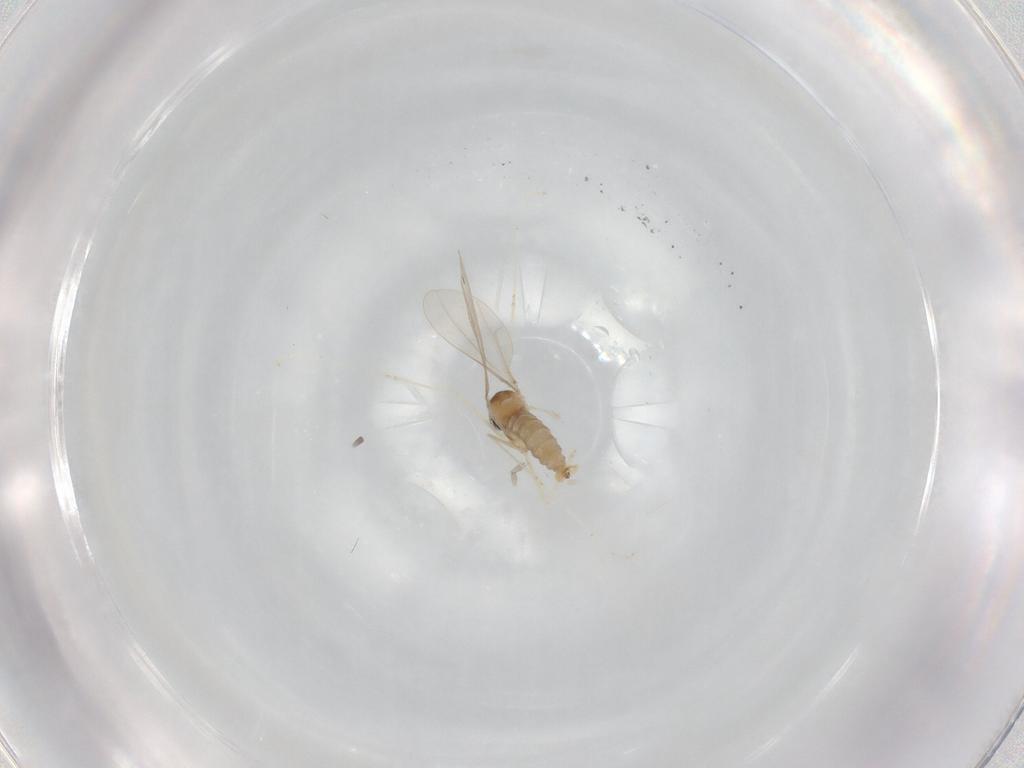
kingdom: Animalia
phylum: Arthropoda
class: Insecta
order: Diptera
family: Cecidomyiidae
